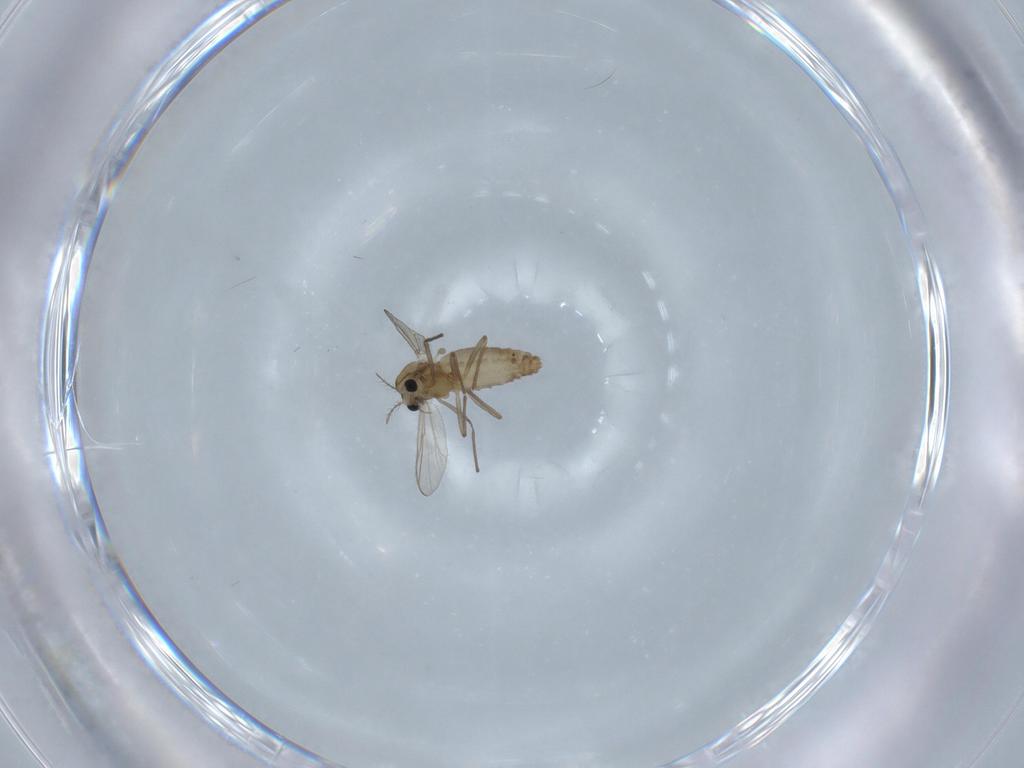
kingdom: Animalia
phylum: Arthropoda
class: Insecta
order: Diptera
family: Chironomidae
